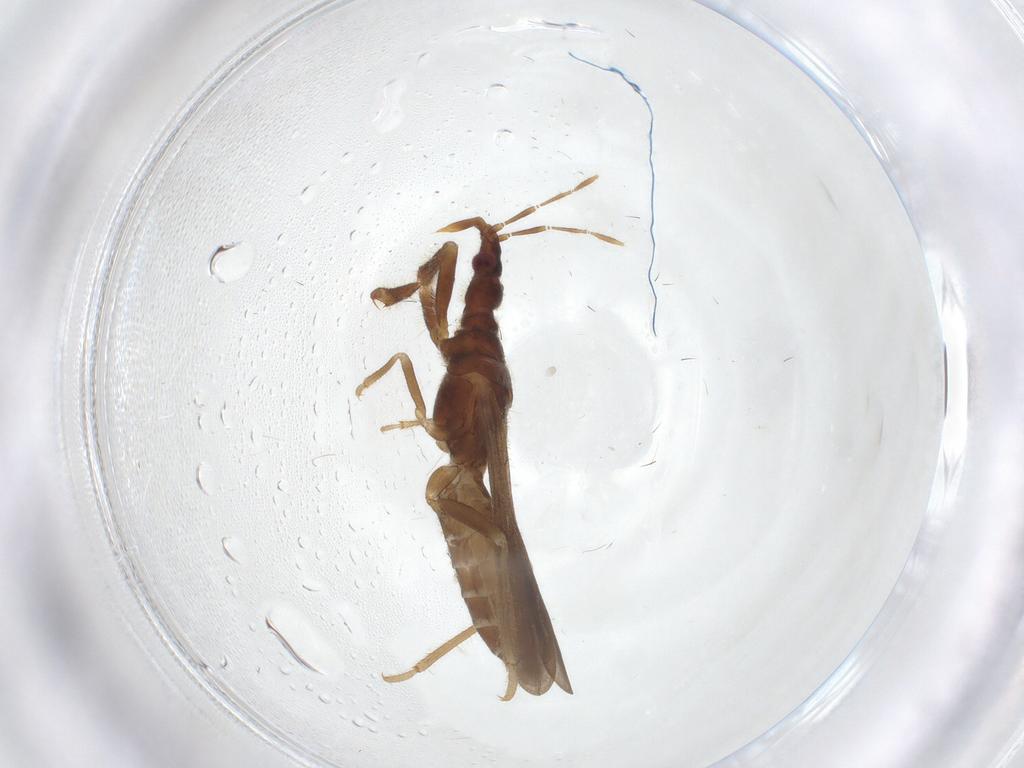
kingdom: Animalia
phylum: Arthropoda
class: Insecta
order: Hemiptera
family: Enicocephalidae
